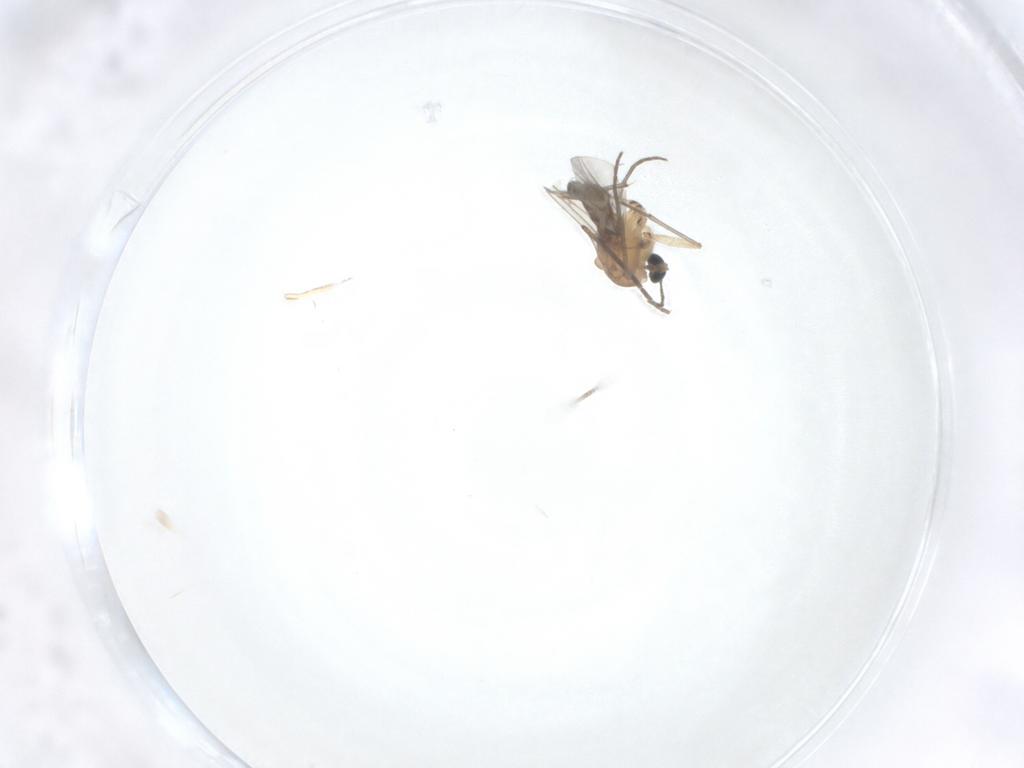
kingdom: Animalia
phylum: Arthropoda
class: Insecta
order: Diptera
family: Sciaridae
